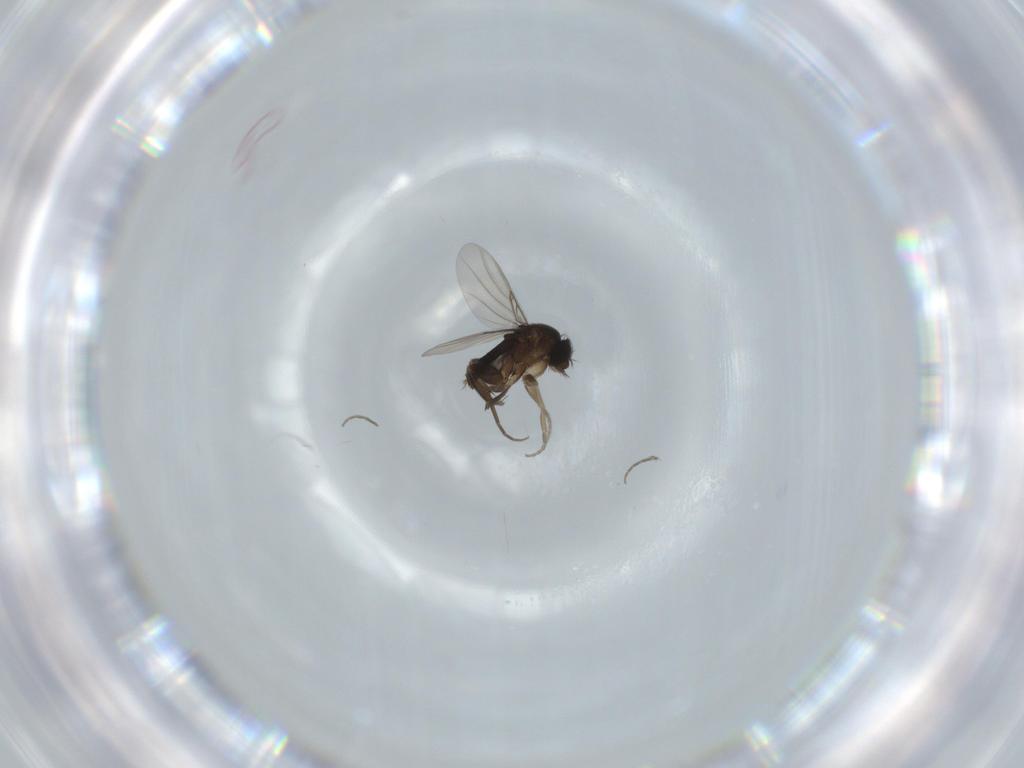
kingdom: Animalia
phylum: Arthropoda
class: Insecta
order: Diptera
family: Phoridae
